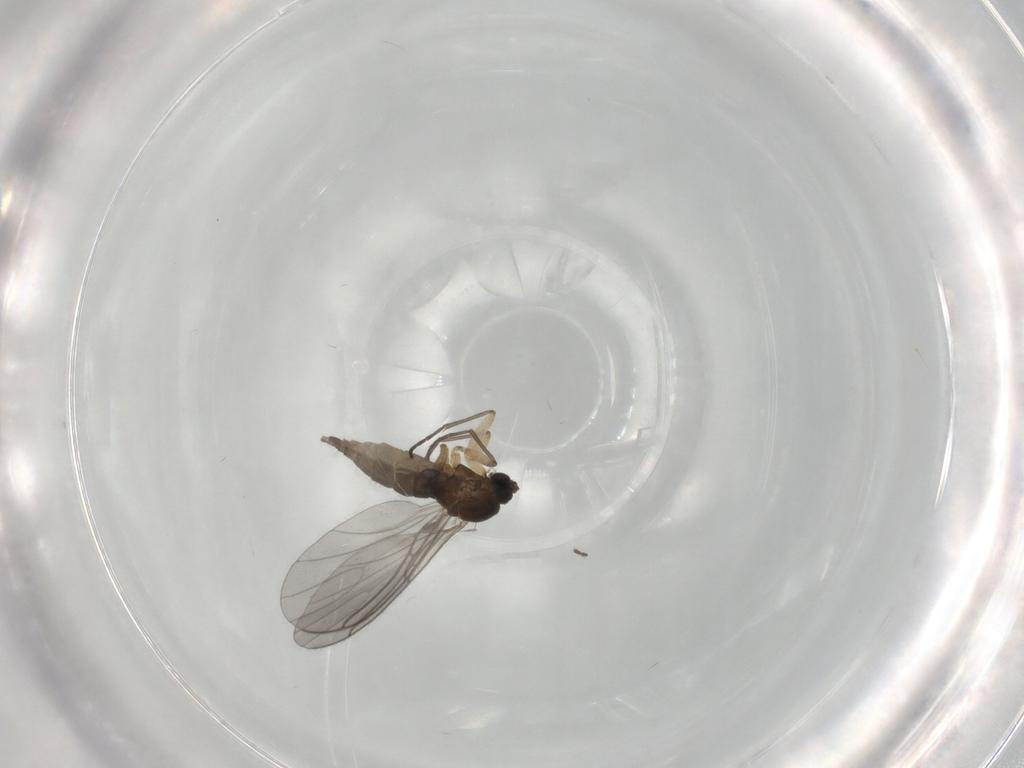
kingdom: Animalia
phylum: Arthropoda
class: Insecta
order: Diptera
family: Sciaridae
